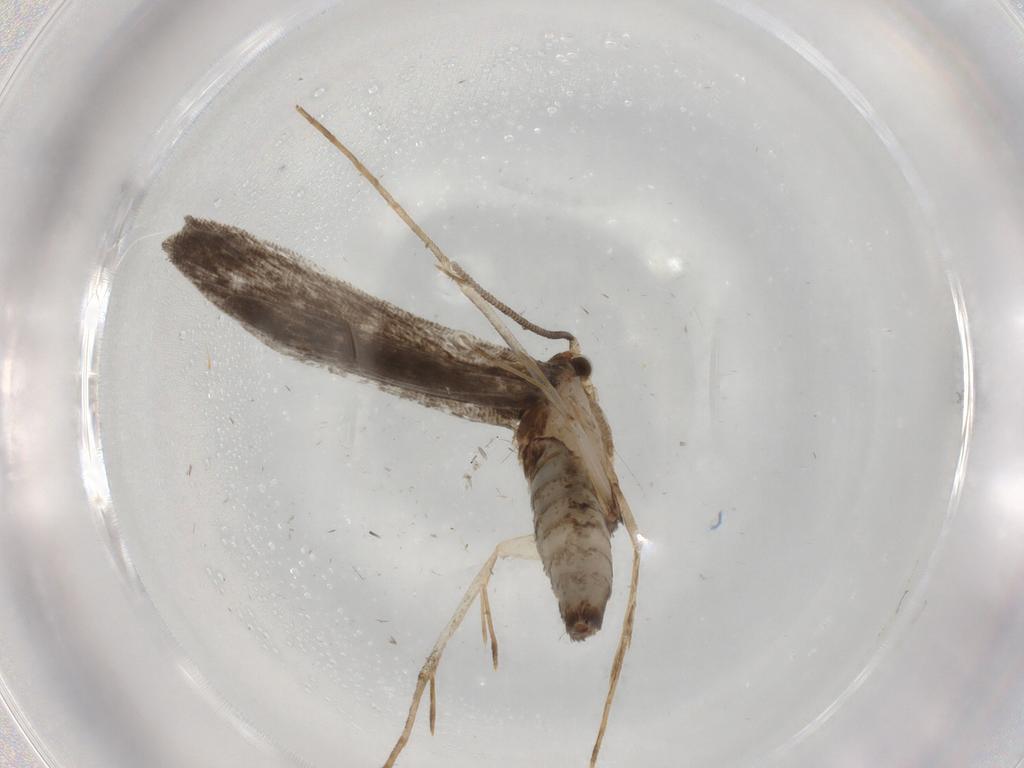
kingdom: Animalia
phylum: Arthropoda
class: Insecta
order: Lepidoptera
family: Tineidae
